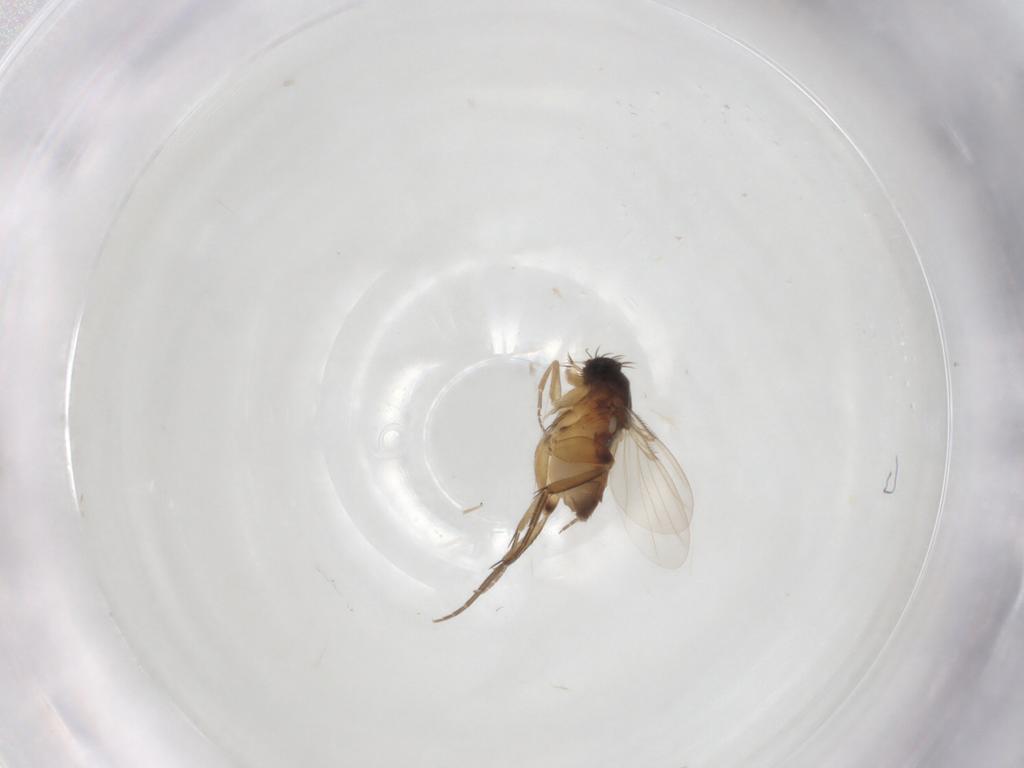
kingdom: Animalia
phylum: Arthropoda
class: Insecta
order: Diptera
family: Phoridae
